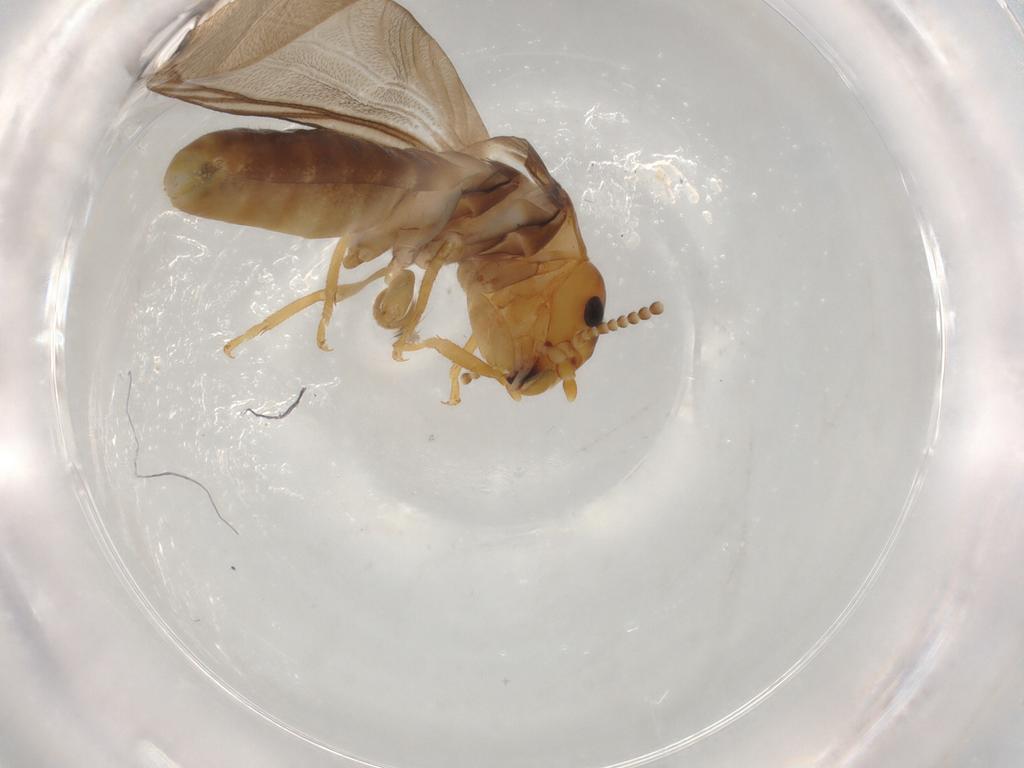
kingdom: Animalia
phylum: Arthropoda
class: Insecta
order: Blattodea
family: Kalotermitidae
